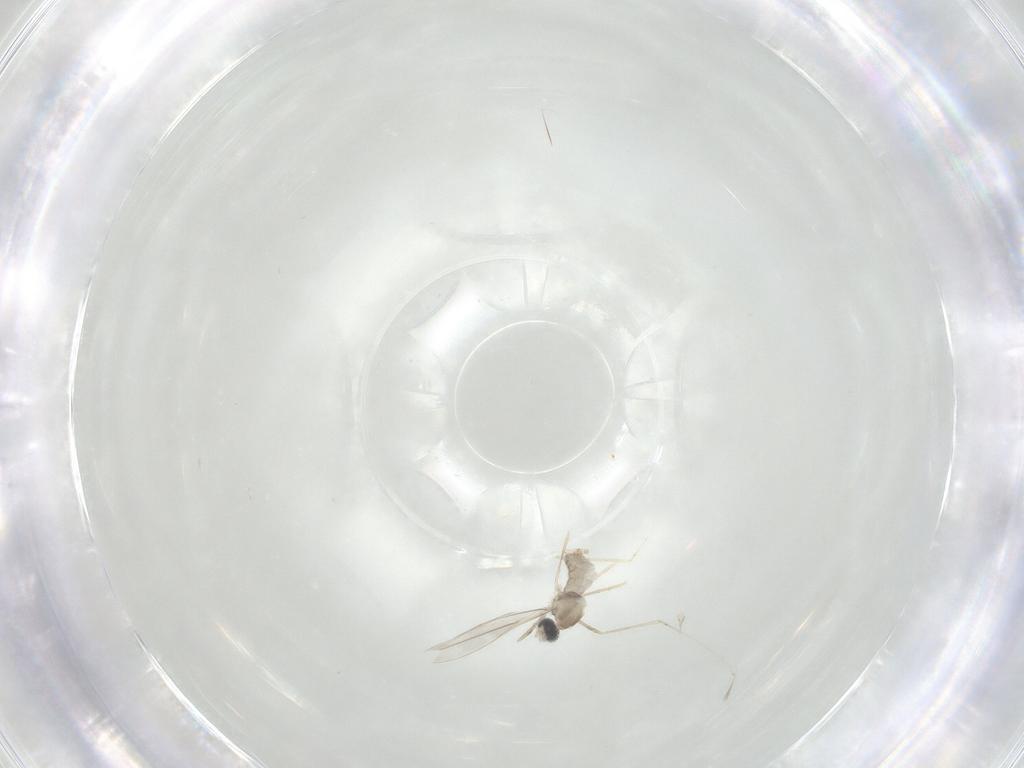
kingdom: Animalia
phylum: Arthropoda
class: Insecta
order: Diptera
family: Cecidomyiidae
